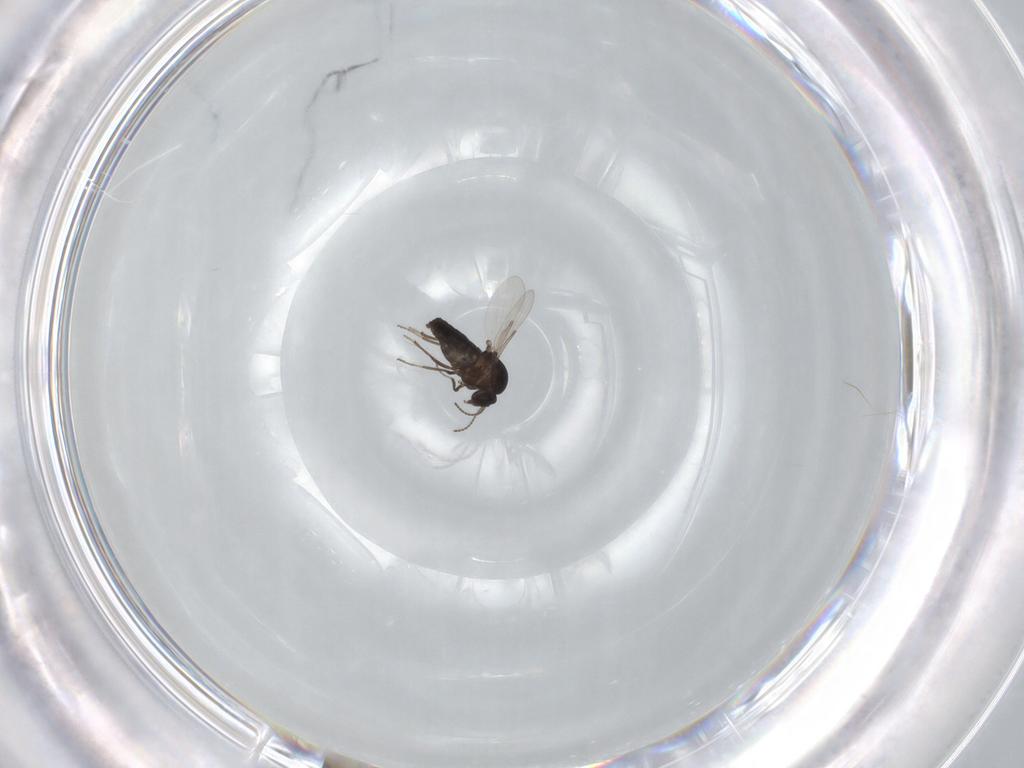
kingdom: Animalia
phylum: Arthropoda
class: Insecta
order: Diptera
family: Ceratopogonidae
